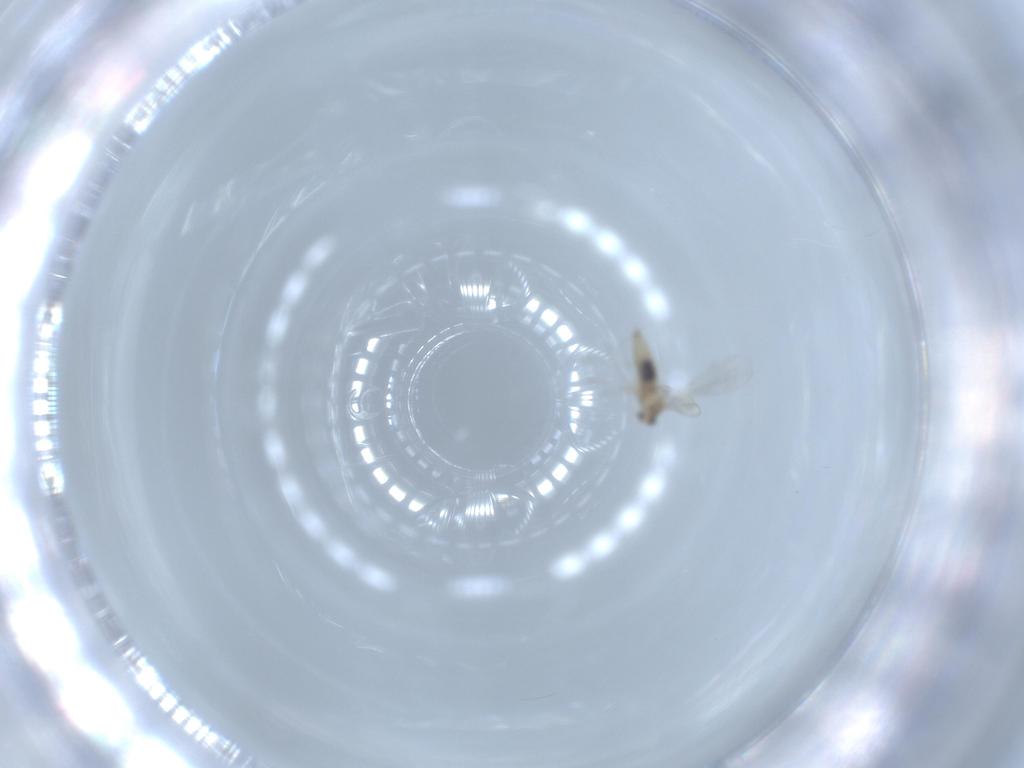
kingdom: Animalia
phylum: Arthropoda
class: Insecta
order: Diptera
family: Cecidomyiidae
